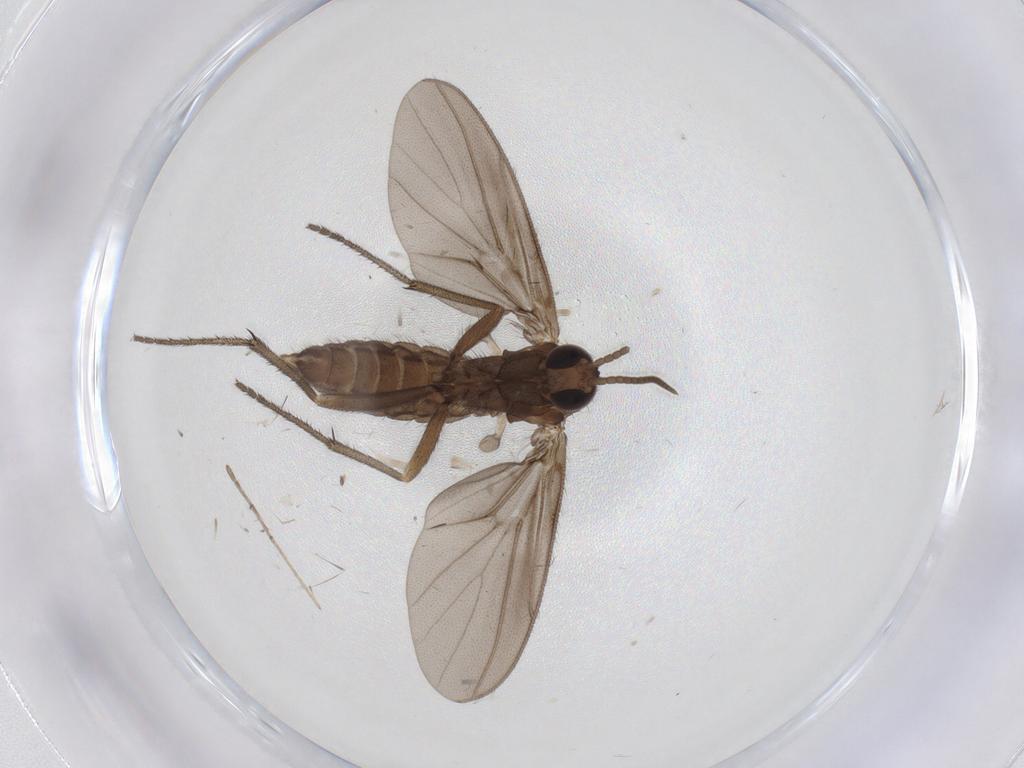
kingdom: Animalia
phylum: Arthropoda
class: Insecta
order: Diptera
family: Diadocidiidae
